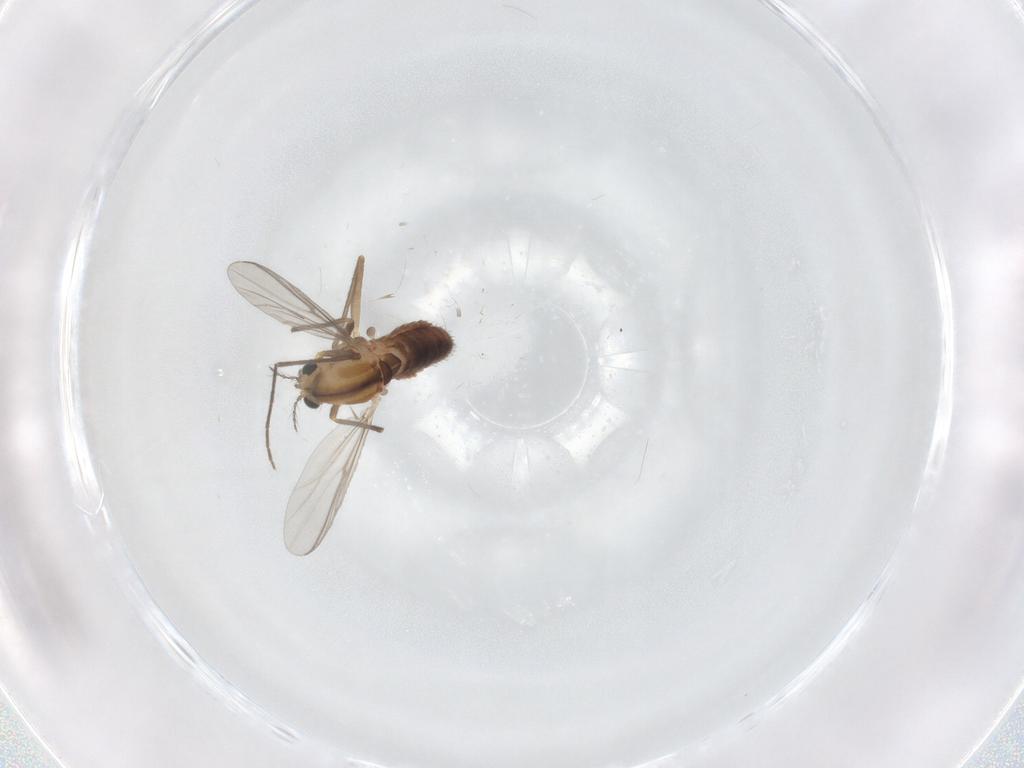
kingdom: Animalia
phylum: Arthropoda
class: Insecta
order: Diptera
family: Chironomidae
